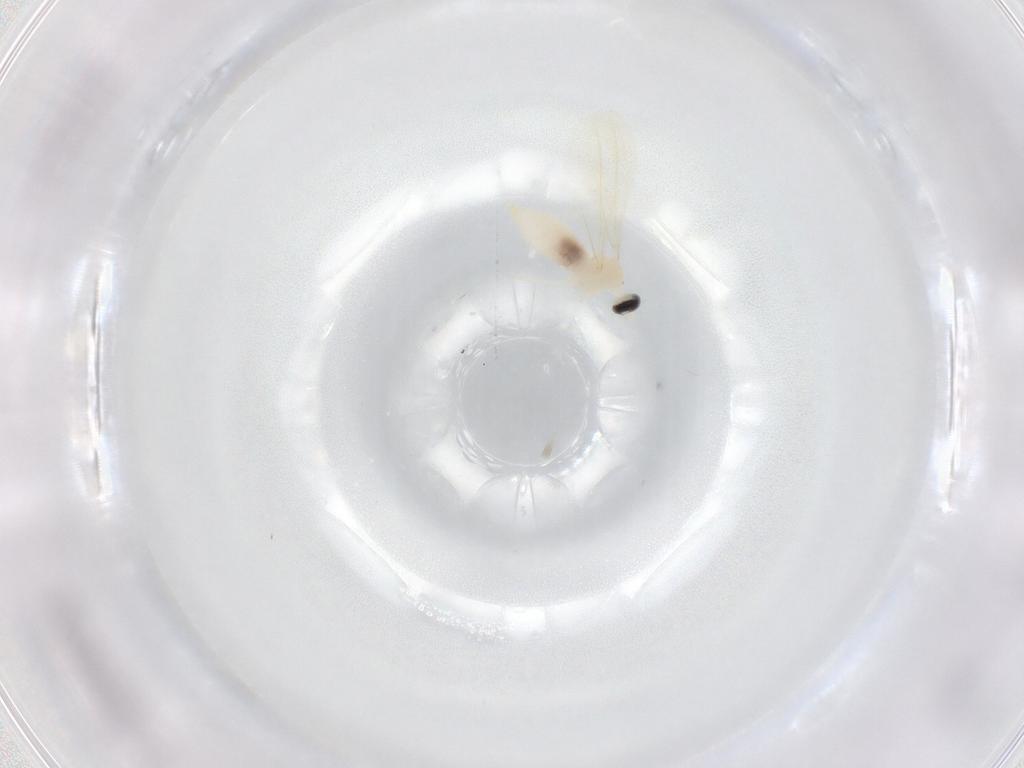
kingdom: Animalia
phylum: Arthropoda
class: Insecta
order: Diptera
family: Cecidomyiidae
